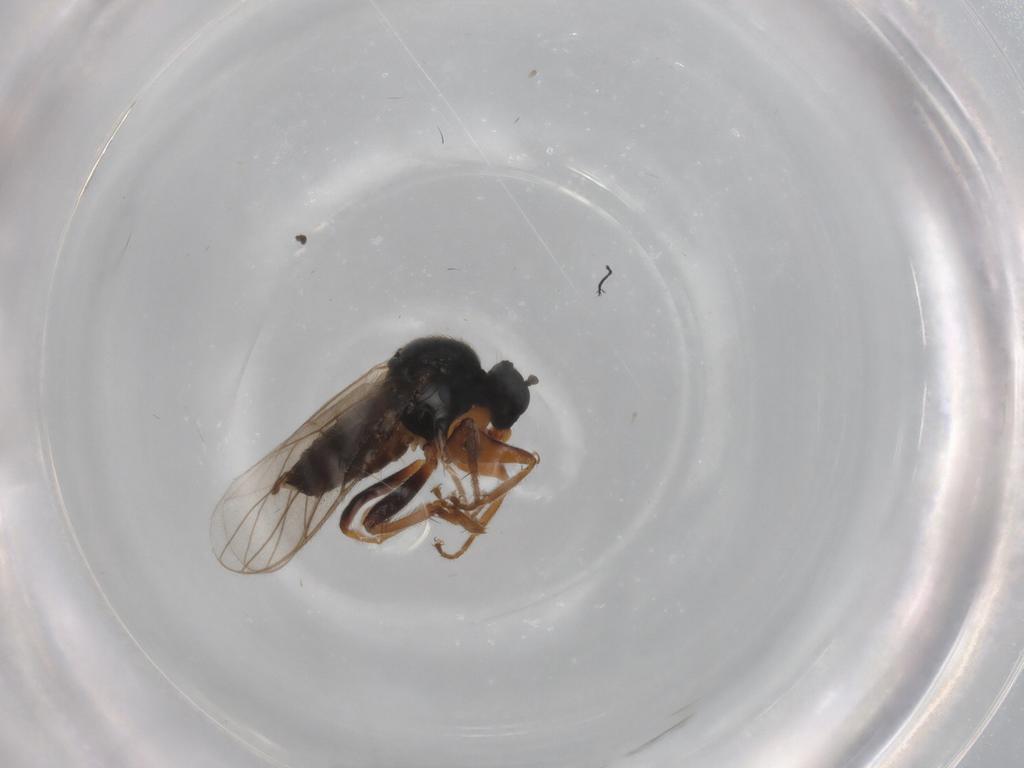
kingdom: Animalia
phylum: Arthropoda
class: Insecta
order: Diptera
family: Hybotidae
